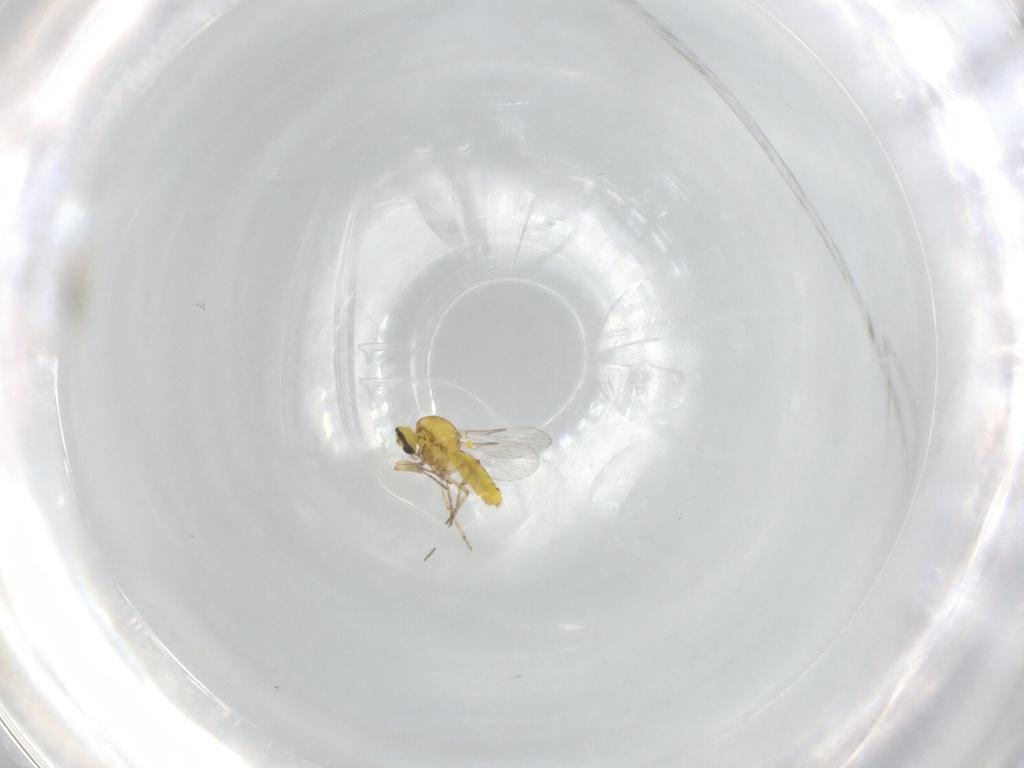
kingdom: Animalia
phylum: Arthropoda
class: Insecta
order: Diptera
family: Ceratopogonidae
